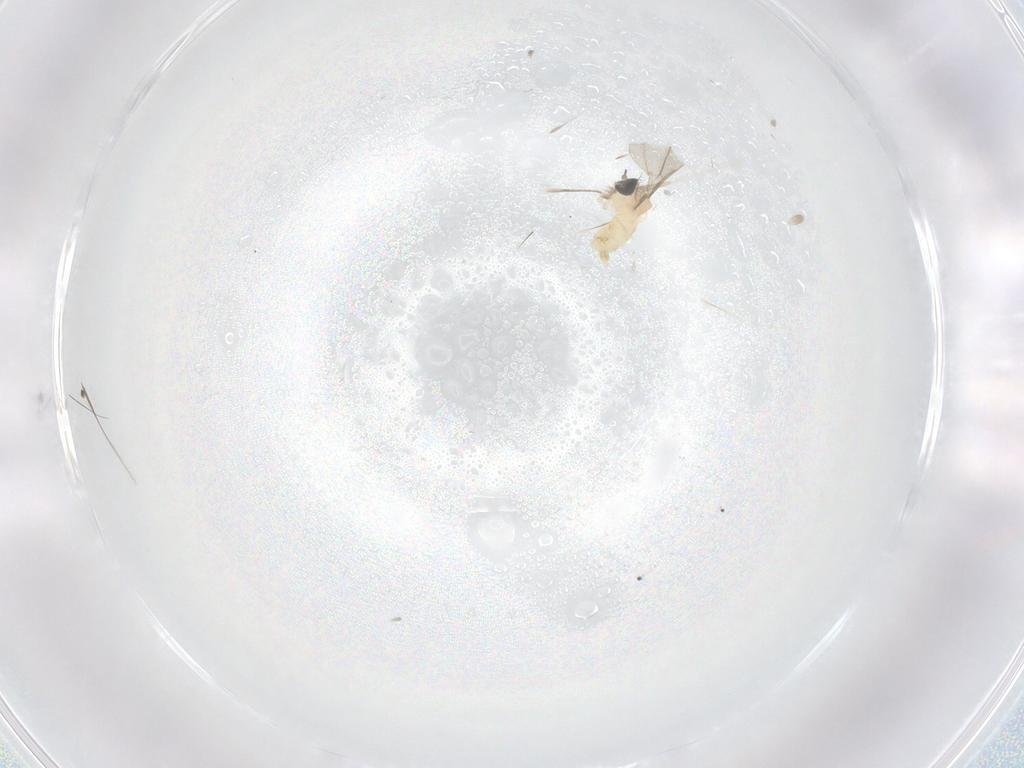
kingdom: Animalia
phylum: Arthropoda
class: Insecta
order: Diptera
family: Cecidomyiidae
